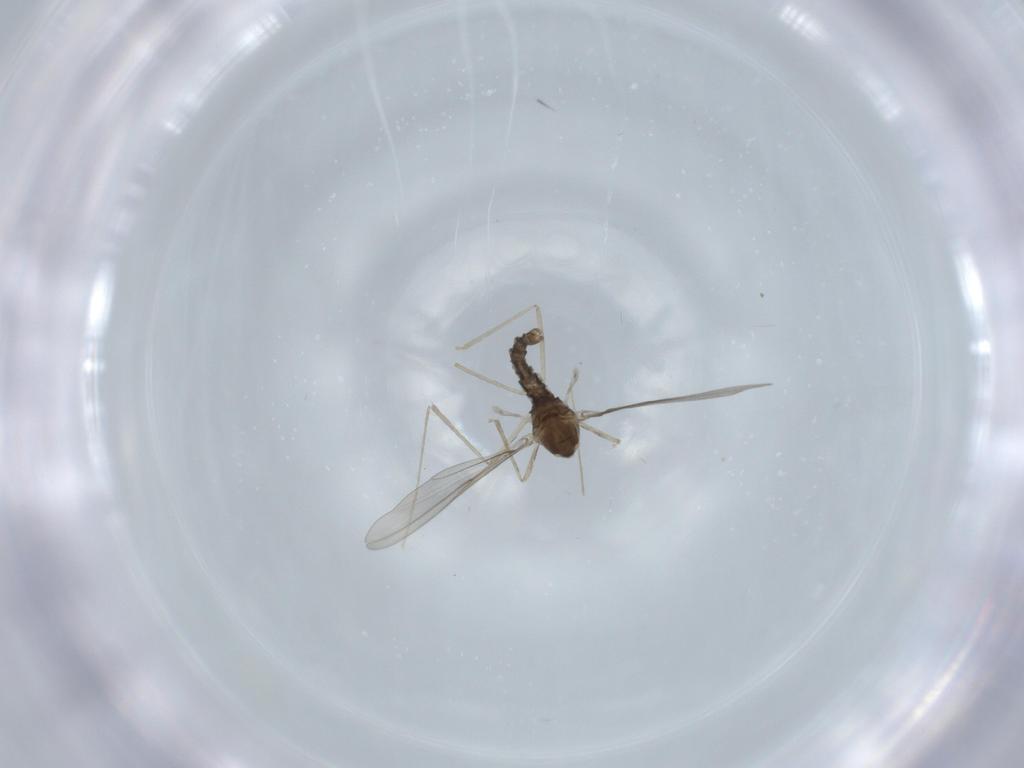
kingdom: Animalia
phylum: Arthropoda
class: Insecta
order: Diptera
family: Cecidomyiidae
